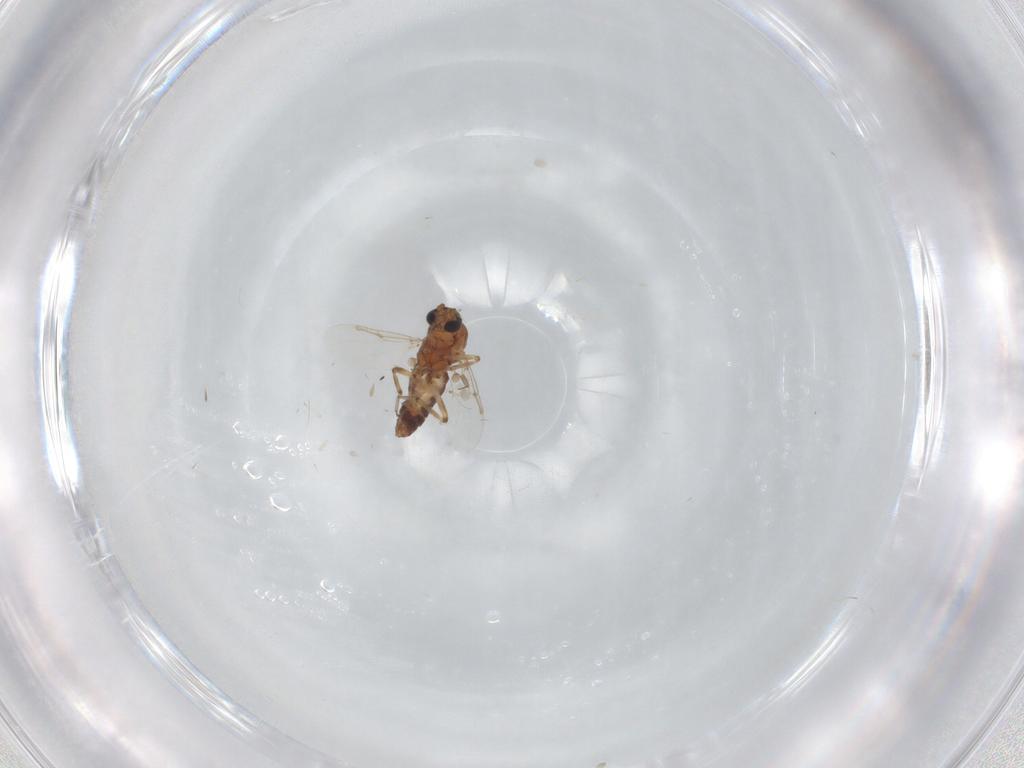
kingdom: Animalia
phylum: Arthropoda
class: Insecta
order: Diptera
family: Ceratopogonidae
